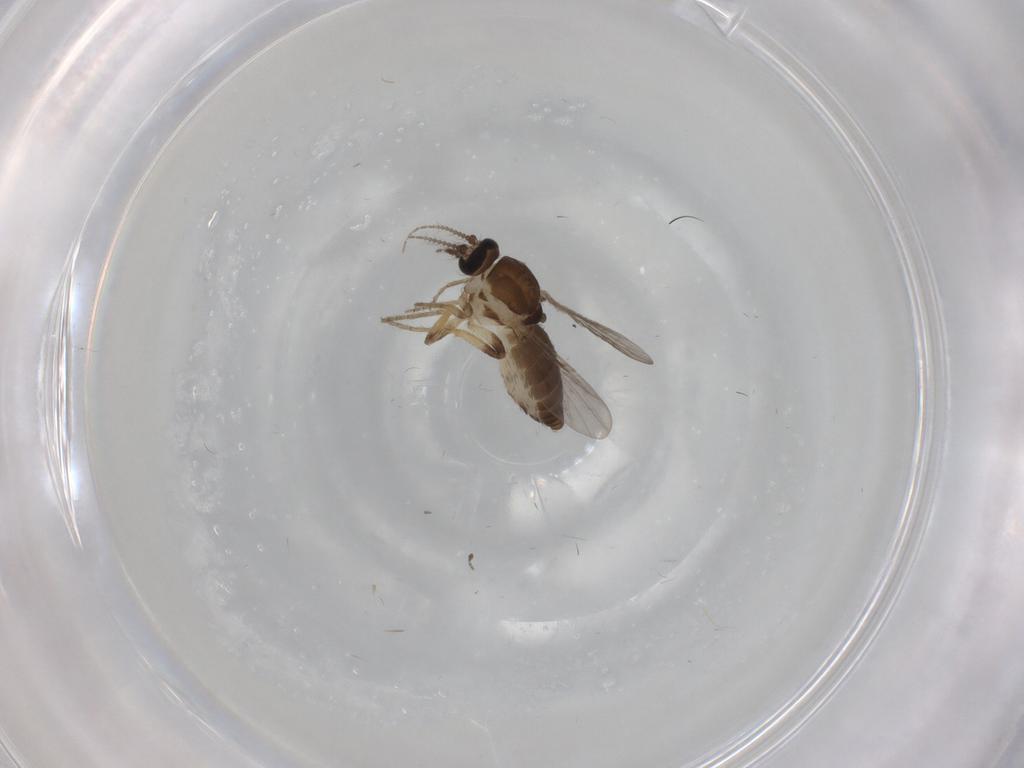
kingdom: Animalia
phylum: Arthropoda
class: Insecta
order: Diptera
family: Ceratopogonidae
